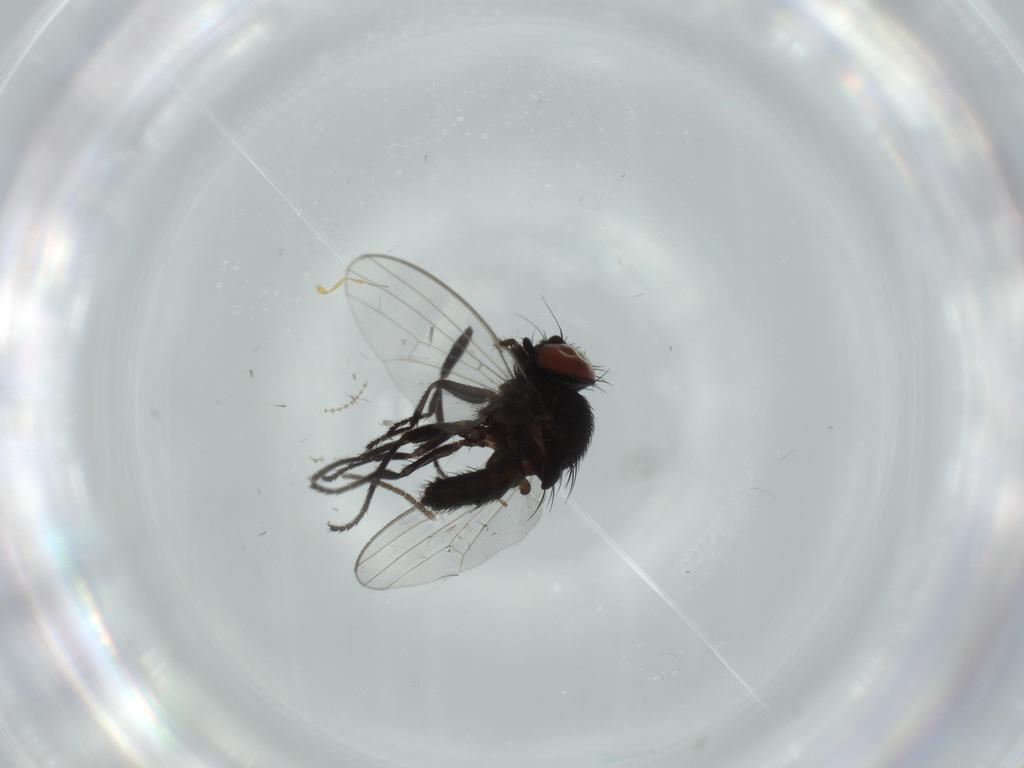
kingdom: Animalia
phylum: Arthropoda
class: Insecta
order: Diptera
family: Sciaridae
